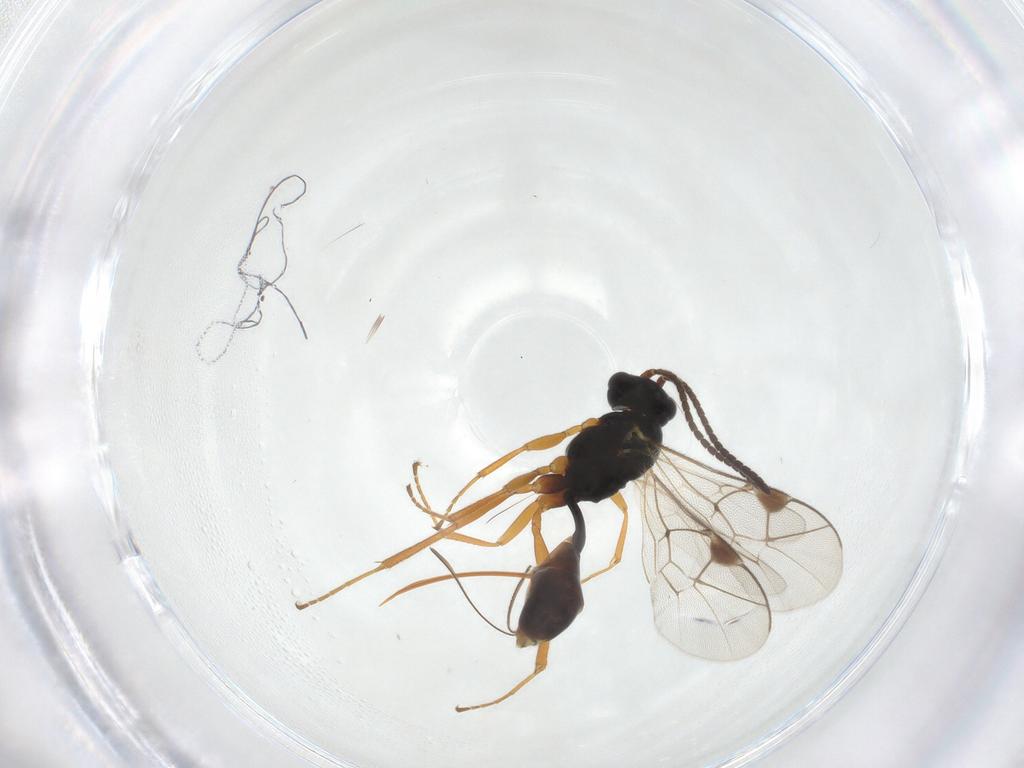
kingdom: Animalia
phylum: Arthropoda
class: Insecta
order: Hymenoptera
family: Ichneumonidae
